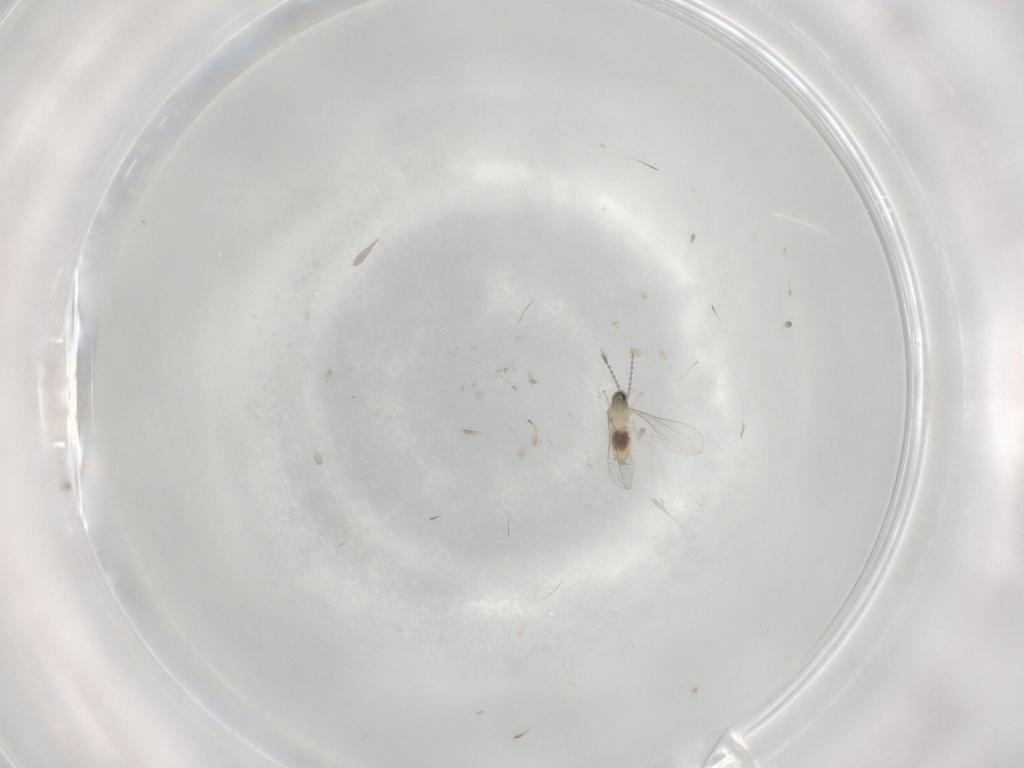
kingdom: Animalia
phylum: Arthropoda
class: Insecta
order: Diptera
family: Cecidomyiidae
